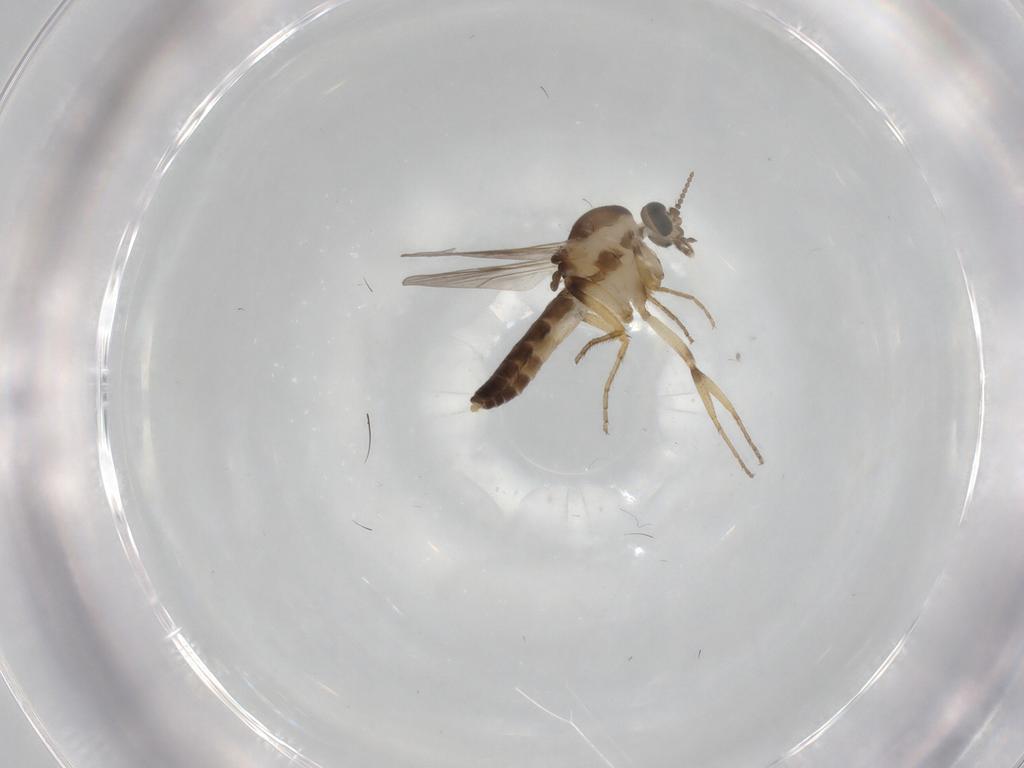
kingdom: Animalia
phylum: Arthropoda
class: Insecta
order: Diptera
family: Ceratopogonidae
